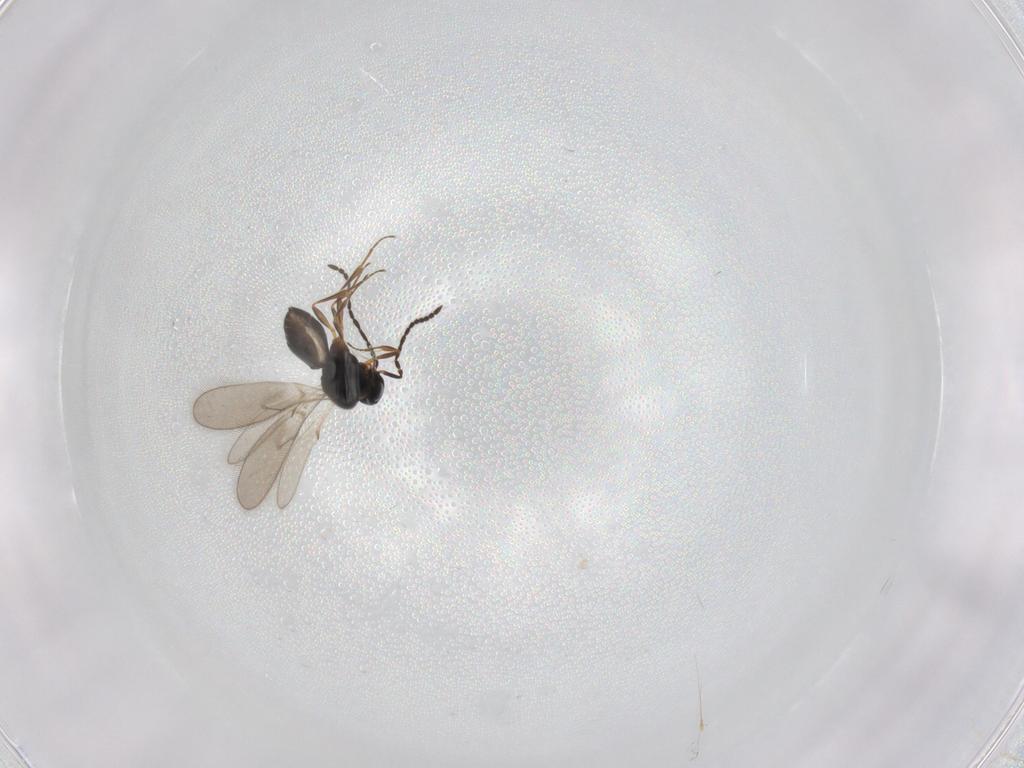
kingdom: Animalia
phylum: Arthropoda
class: Insecta
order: Hymenoptera
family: Scelionidae
